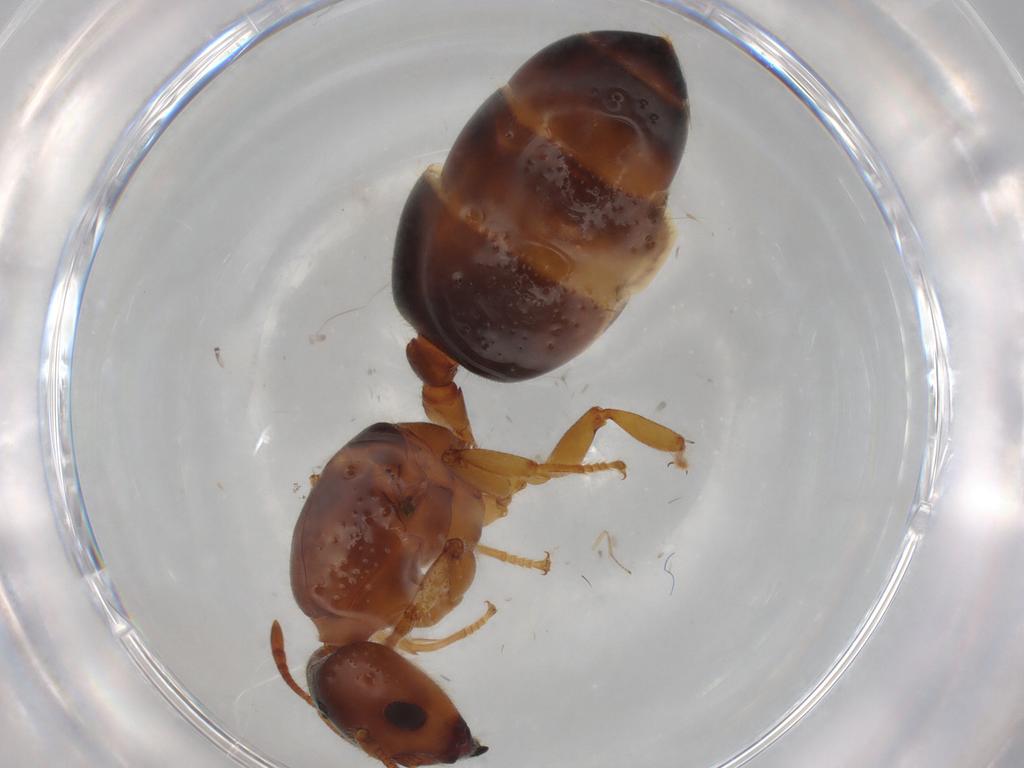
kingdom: Animalia
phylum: Arthropoda
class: Insecta
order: Hymenoptera
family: Formicidae
